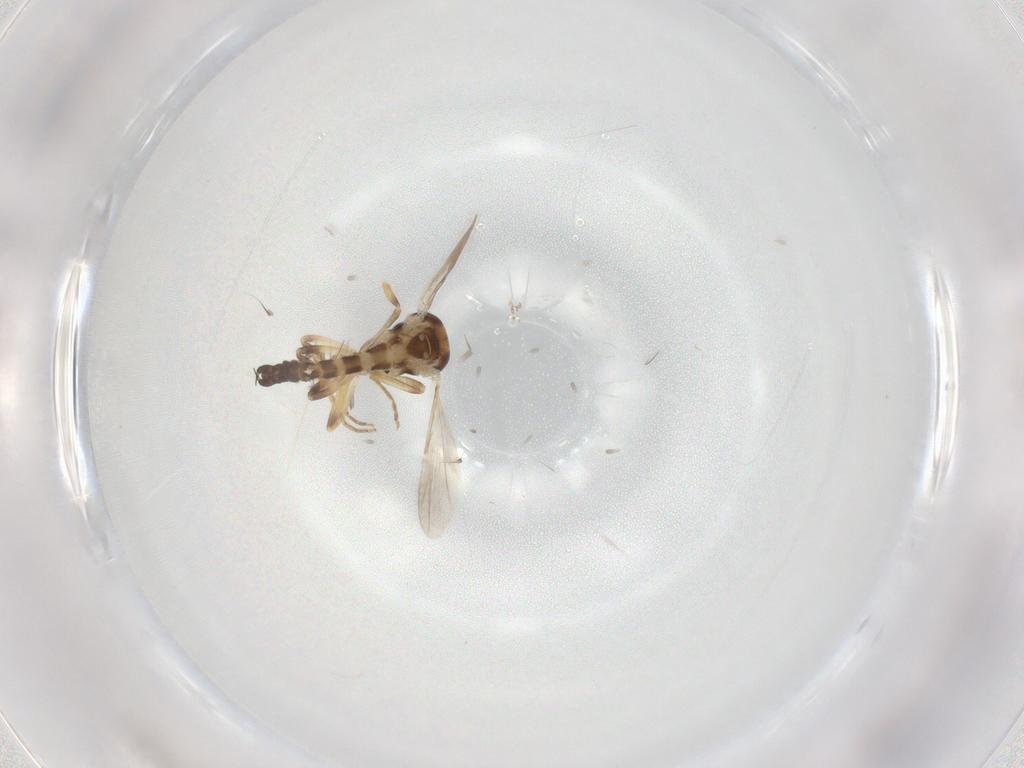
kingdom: Animalia
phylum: Arthropoda
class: Insecta
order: Diptera
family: Ceratopogonidae
